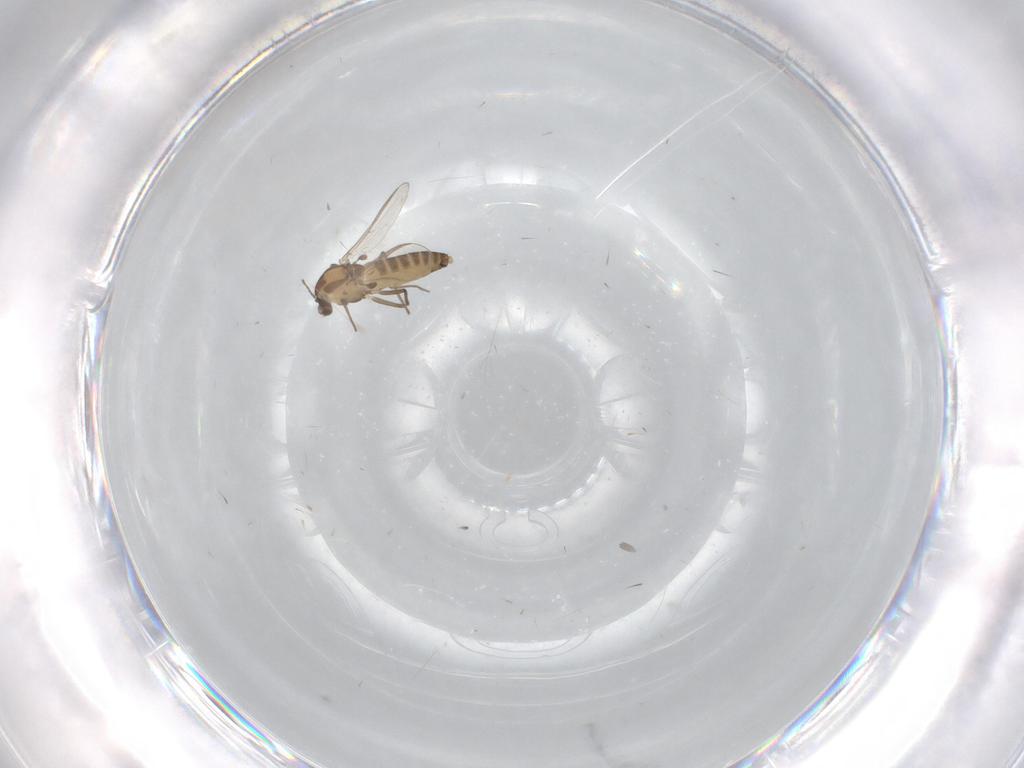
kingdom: Animalia
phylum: Arthropoda
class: Insecta
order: Diptera
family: Chironomidae
